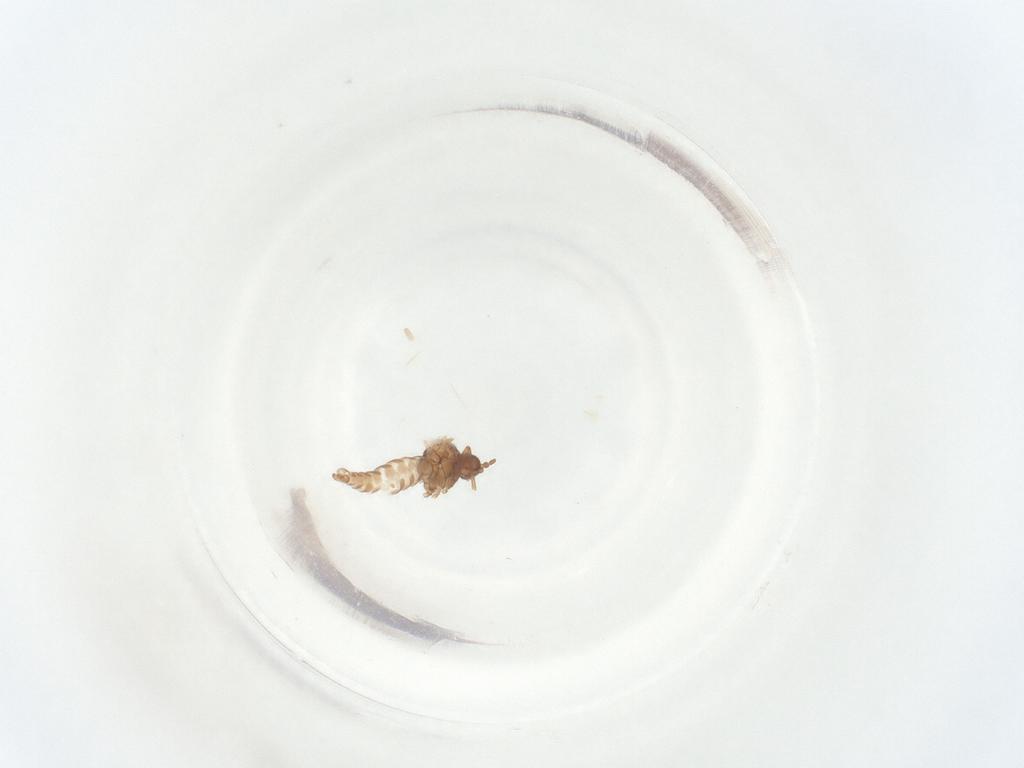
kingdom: Animalia
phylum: Arthropoda
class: Insecta
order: Diptera
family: Sciaridae
